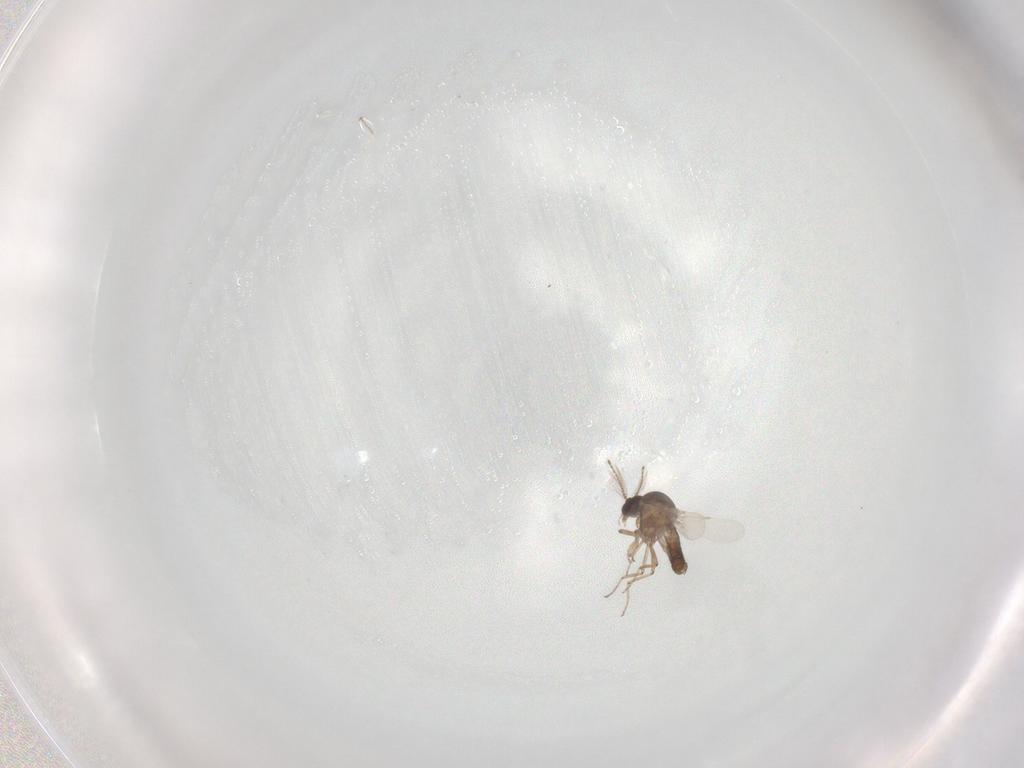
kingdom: Animalia
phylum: Arthropoda
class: Insecta
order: Diptera
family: Ceratopogonidae
